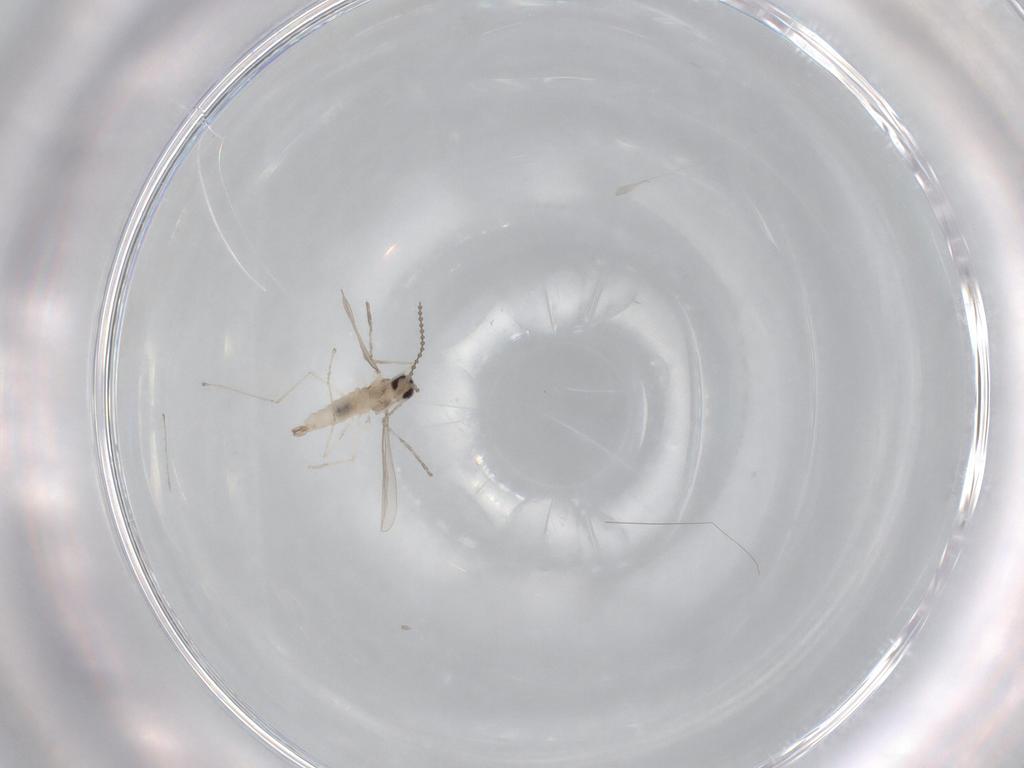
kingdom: Animalia
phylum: Arthropoda
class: Insecta
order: Diptera
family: Cecidomyiidae
